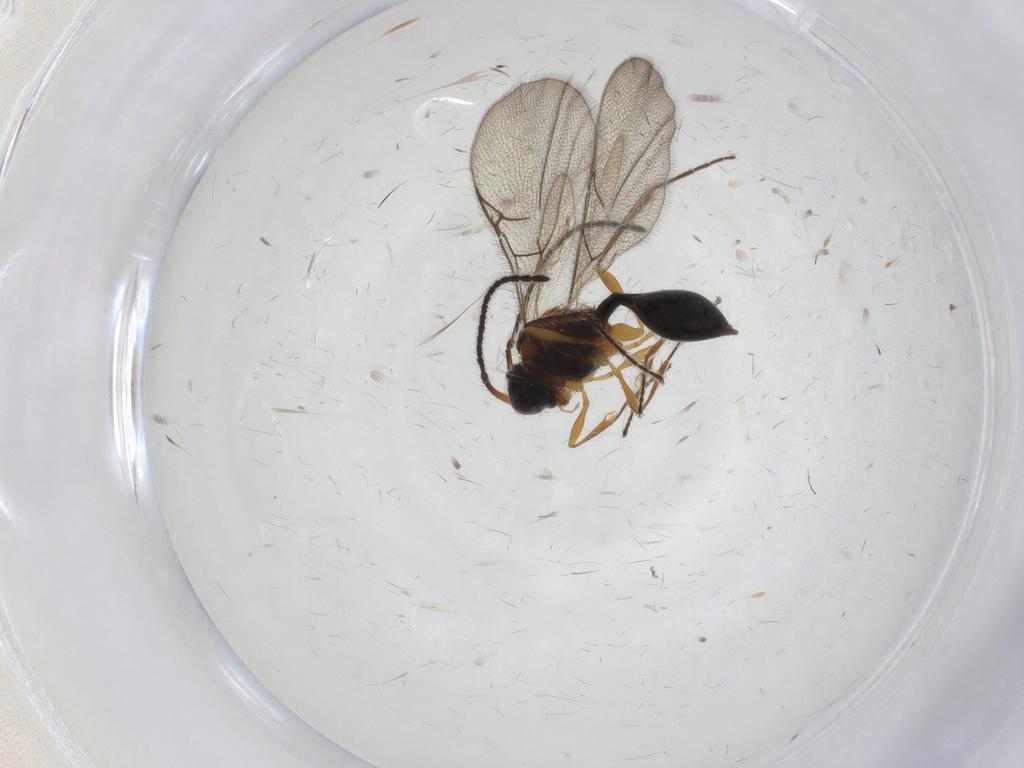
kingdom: Animalia
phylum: Arthropoda
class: Insecta
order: Hymenoptera
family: Diapriidae
